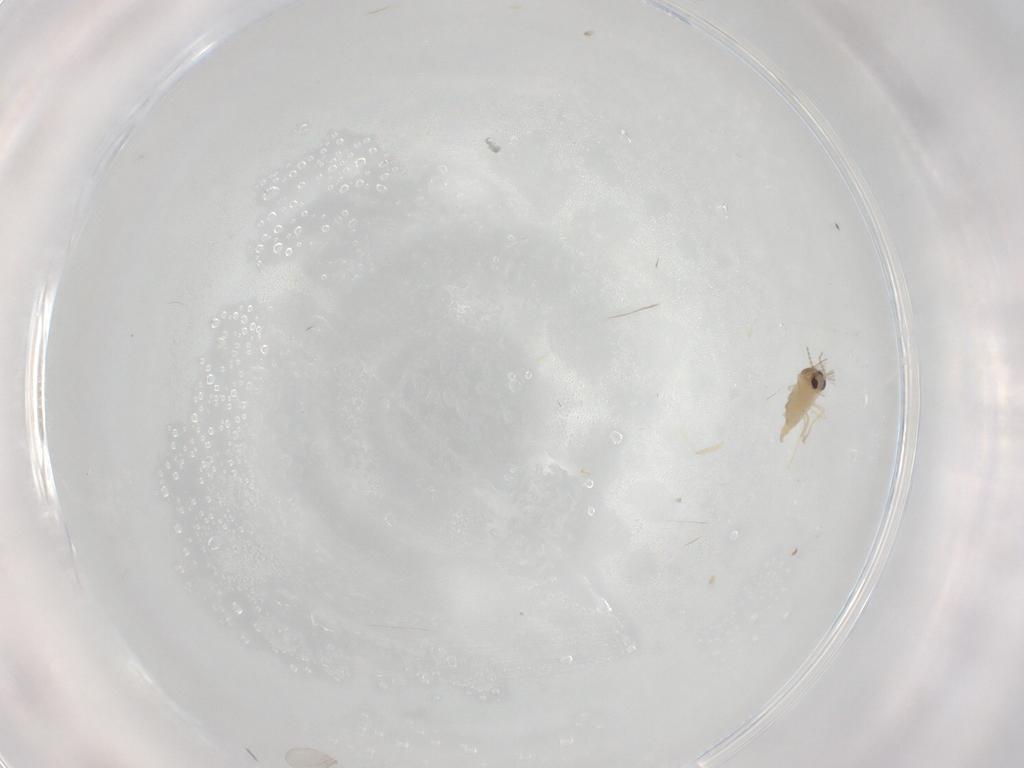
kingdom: Animalia
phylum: Arthropoda
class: Insecta
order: Diptera
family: Cecidomyiidae
